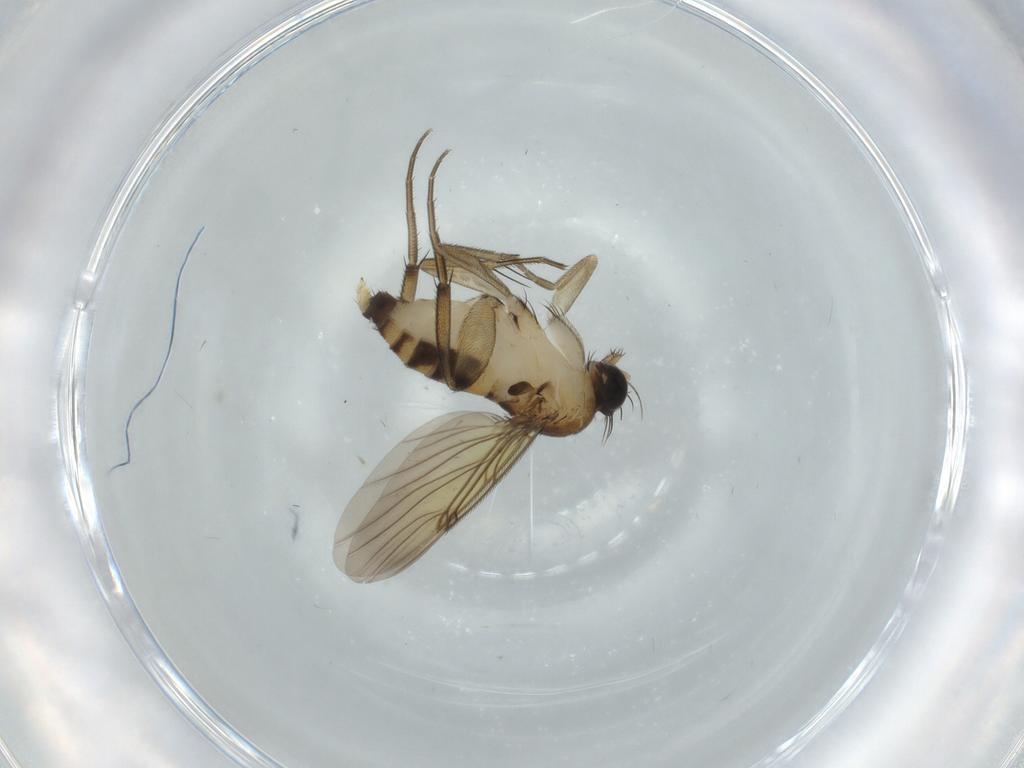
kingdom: Animalia
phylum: Arthropoda
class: Insecta
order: Diptera
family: Phoridae
